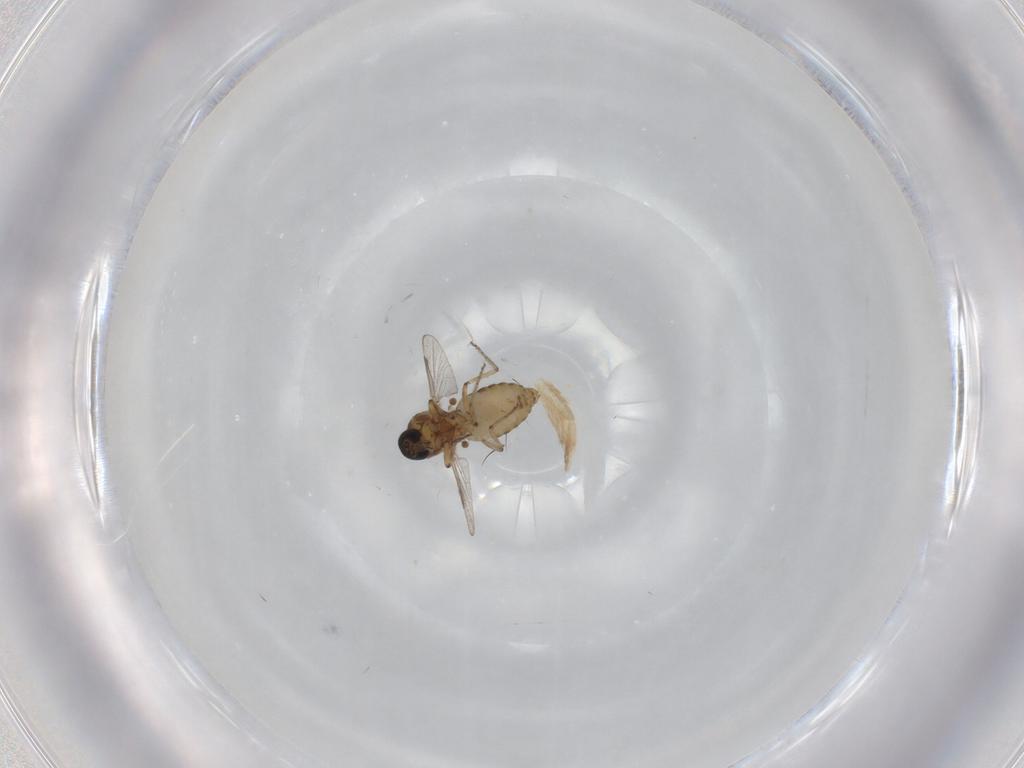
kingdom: Animalia
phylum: Arthropoda
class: Insecta
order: Diptera
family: Ceratopogonidae
